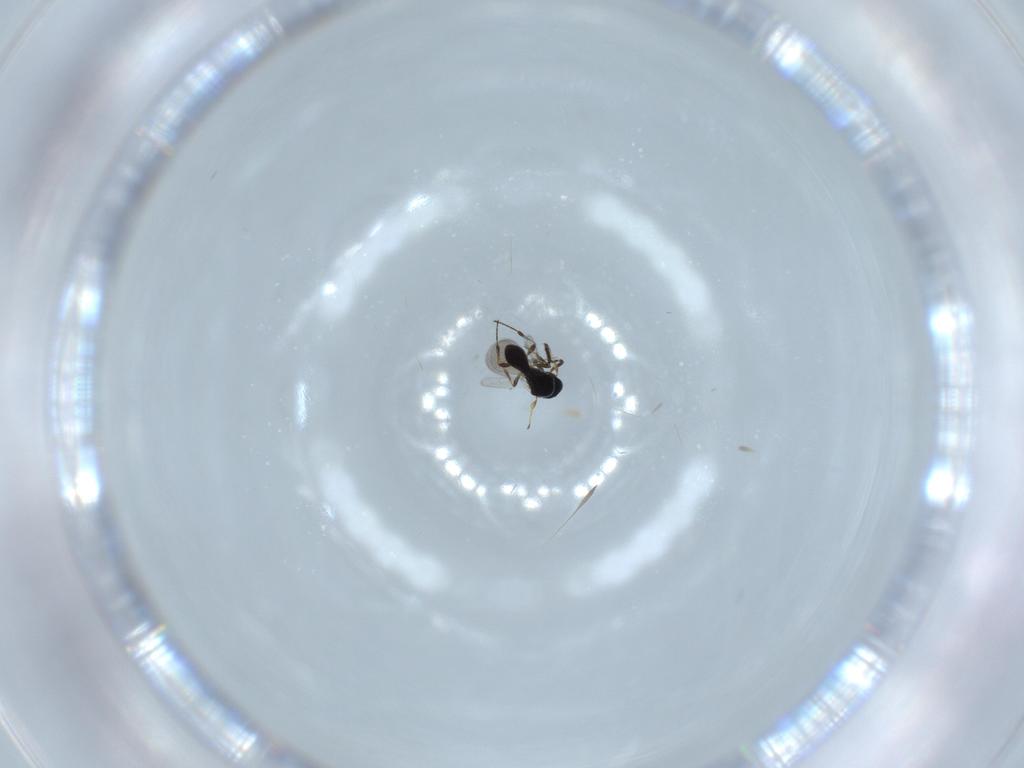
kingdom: Animalia
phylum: Arthropoda
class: Insecta
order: Hymenoptera
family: Platygastridae
